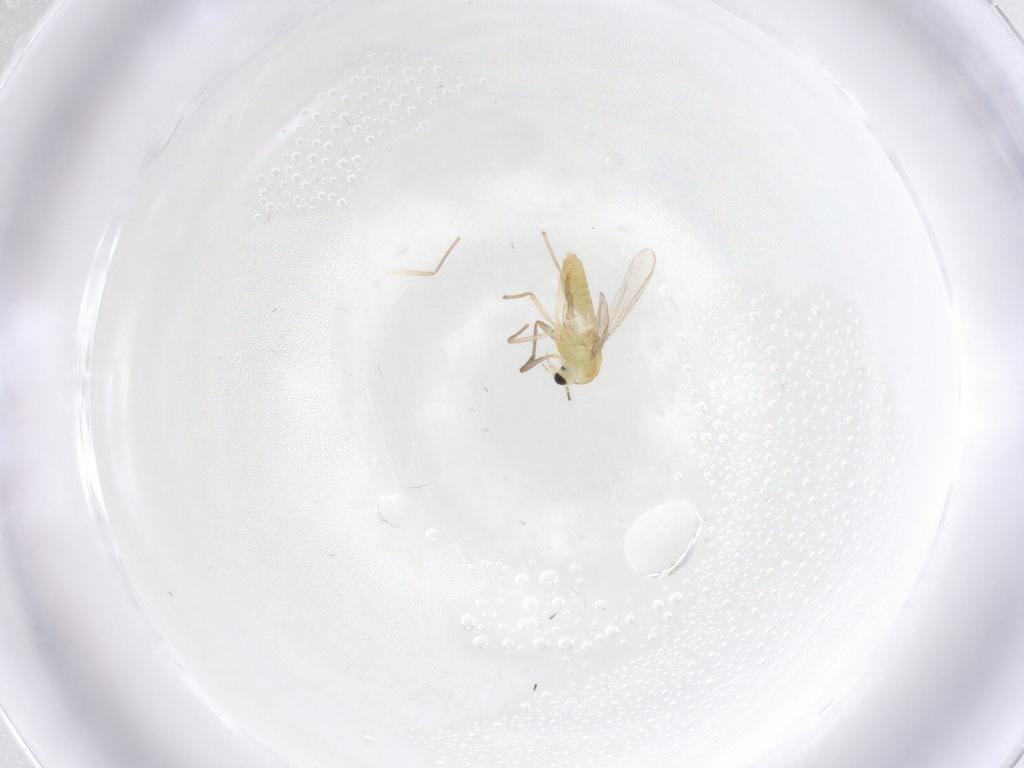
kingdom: Animalia
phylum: Arthropoda
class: Insecta
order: Diptera
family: Chironomidae
